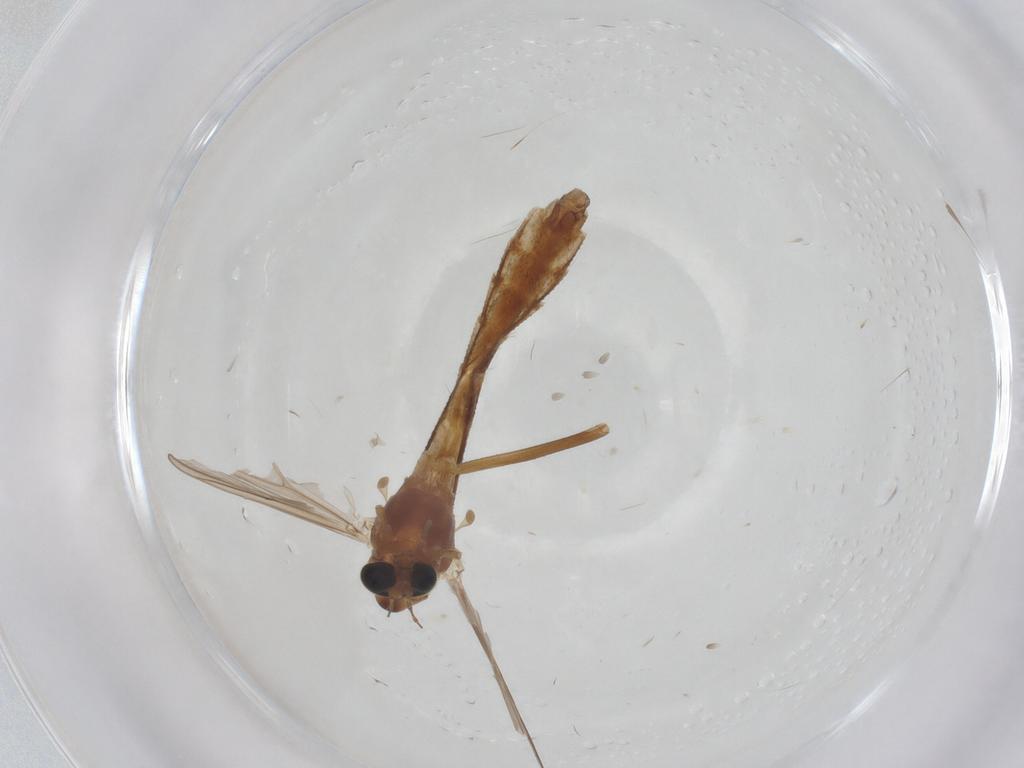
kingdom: Animalia
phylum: Arthropoda
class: Insecta
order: Diptera
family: Chironomidae
